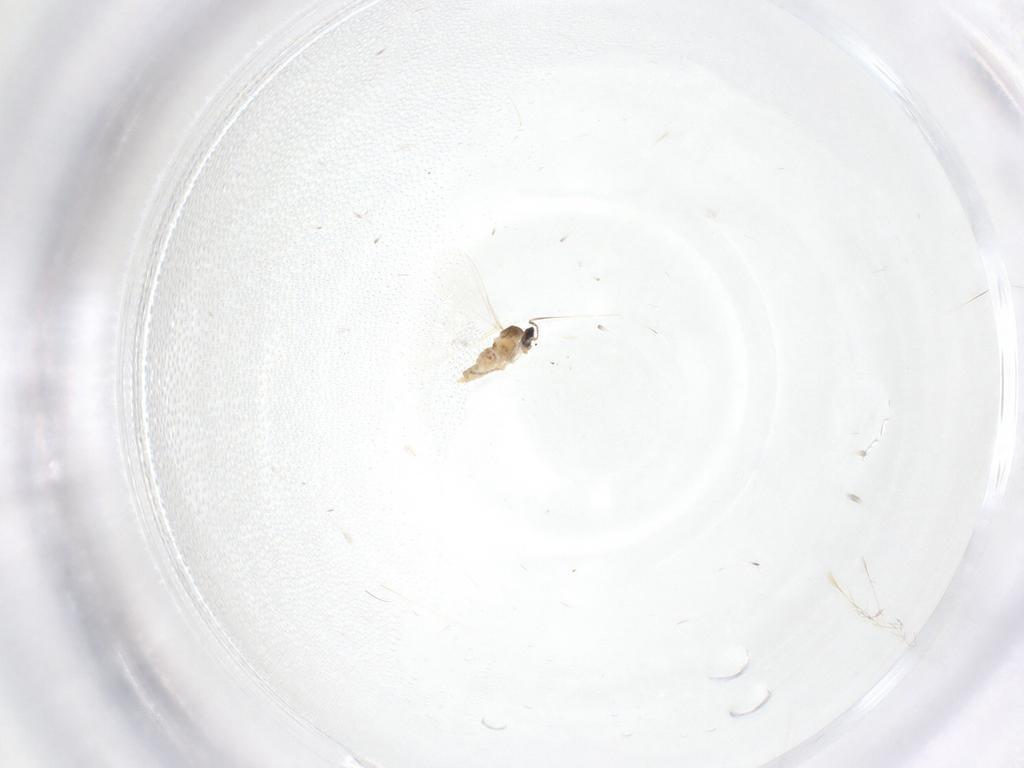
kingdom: Animalia
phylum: Arthropoda
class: Insecta
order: Diptera
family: Cecidomyiidae
